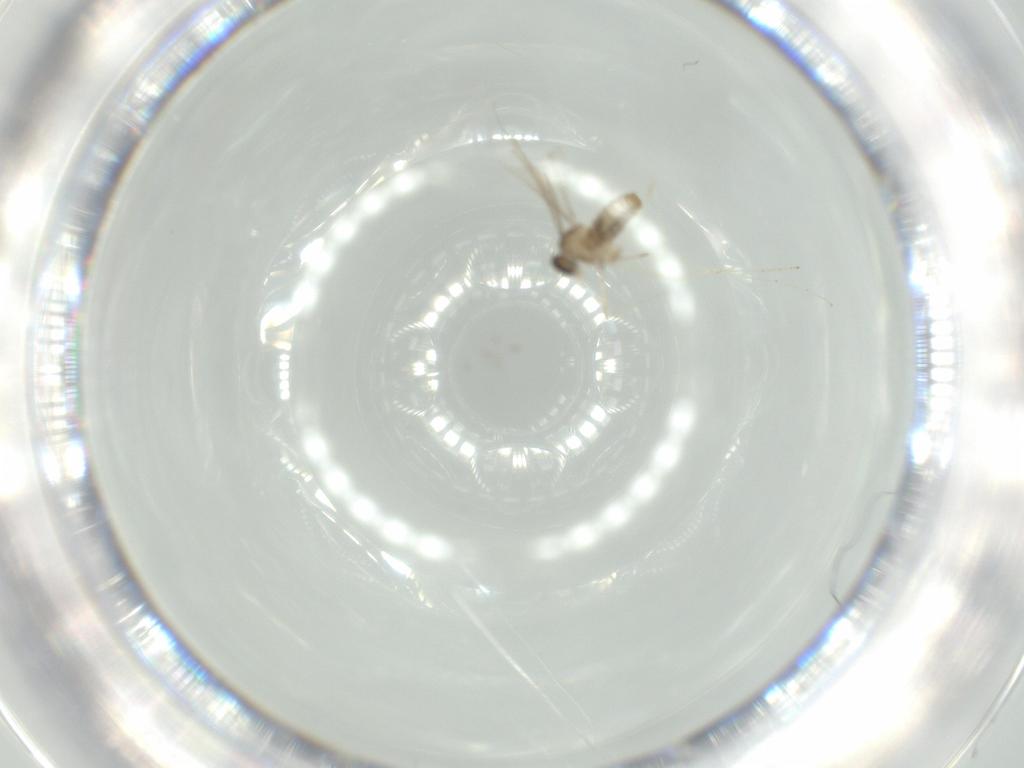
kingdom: Animalia
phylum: Arthropoda
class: Insecta
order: Diptera
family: Cecidomyiidae
